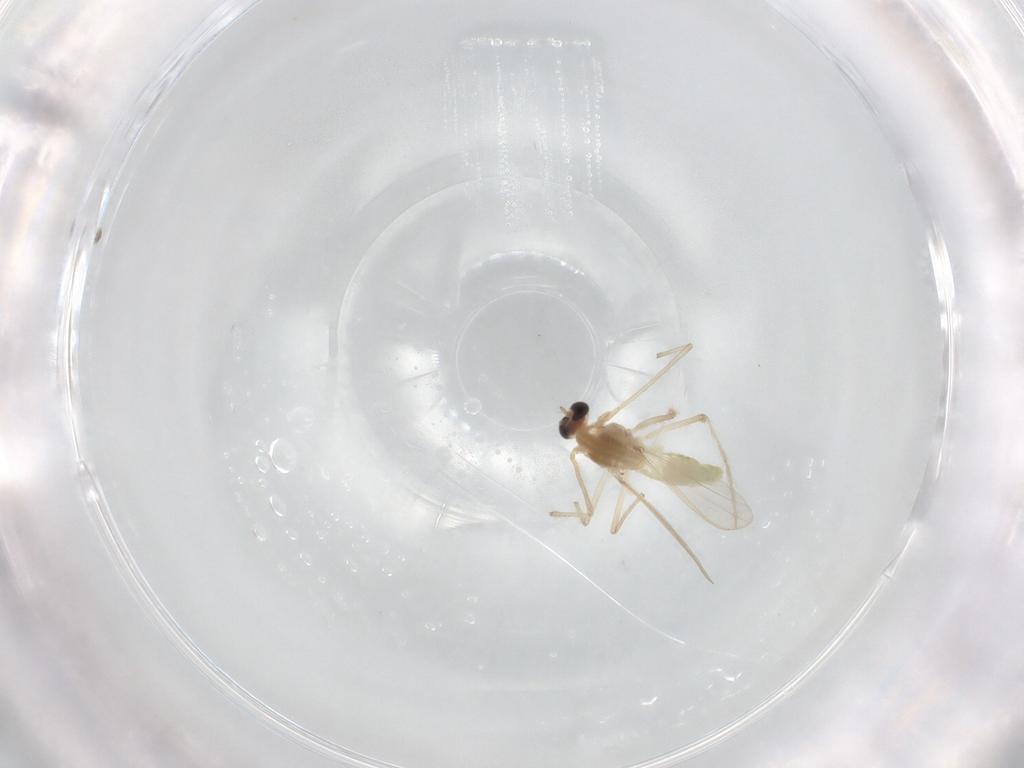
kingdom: Animalia
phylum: Arthropoda
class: Insecta
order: Diptera
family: Chironomidae
